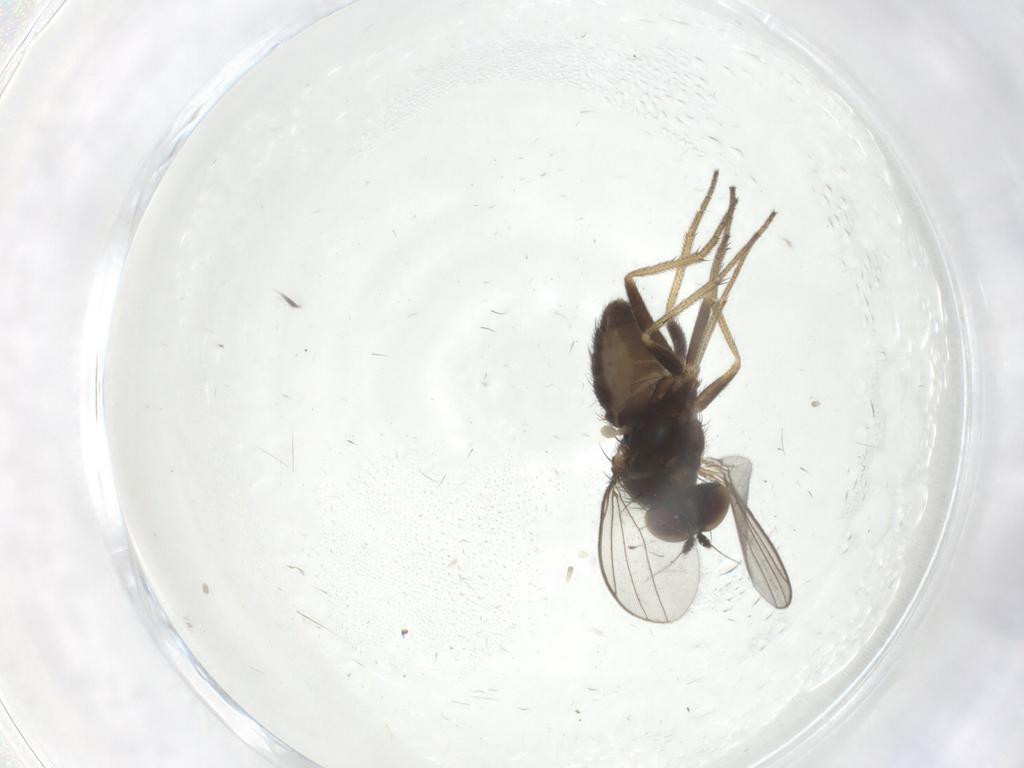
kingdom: Animalia
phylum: Arthropoda
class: Insecta
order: Diptera
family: Dolichopodidae
